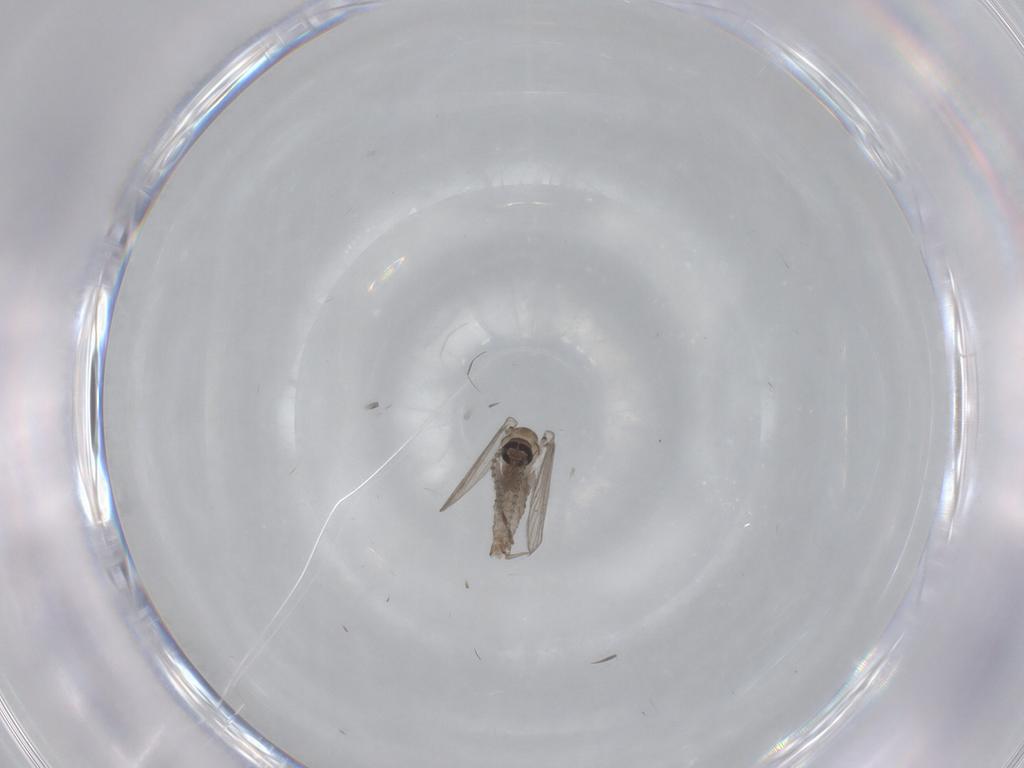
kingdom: Animalia
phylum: Arthropoda
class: Insecta
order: Diptera
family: Psychodidae
